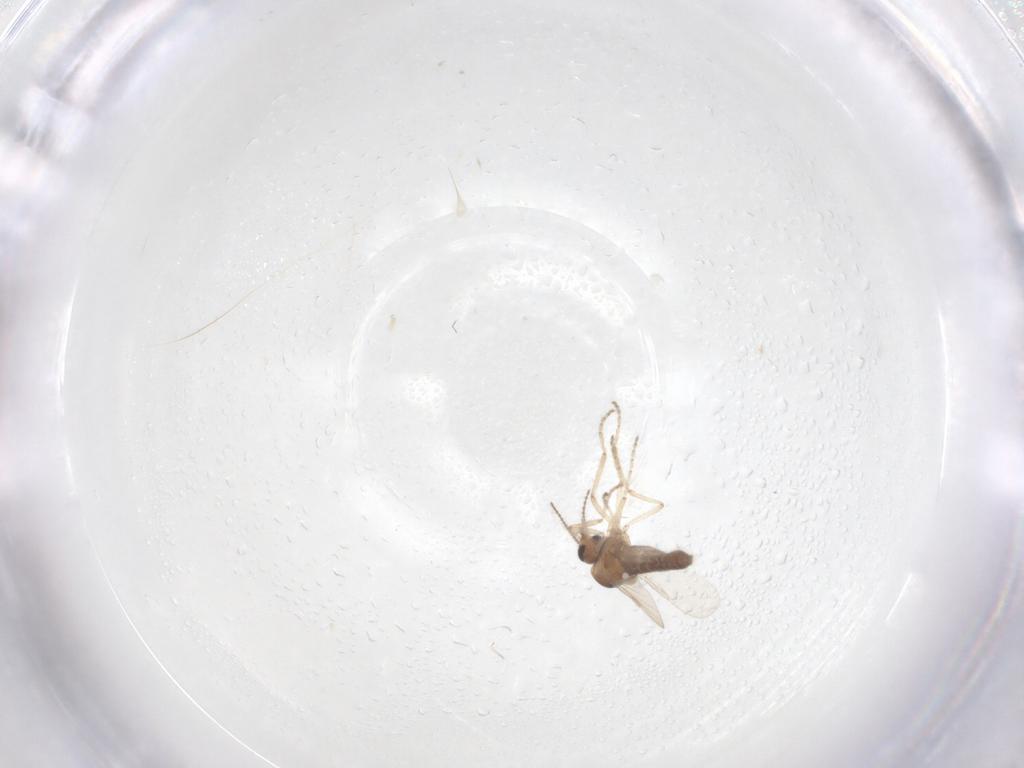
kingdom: Animalia
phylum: Arthropoda
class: Insecta
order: Diptera
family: Ceratopogonidae
